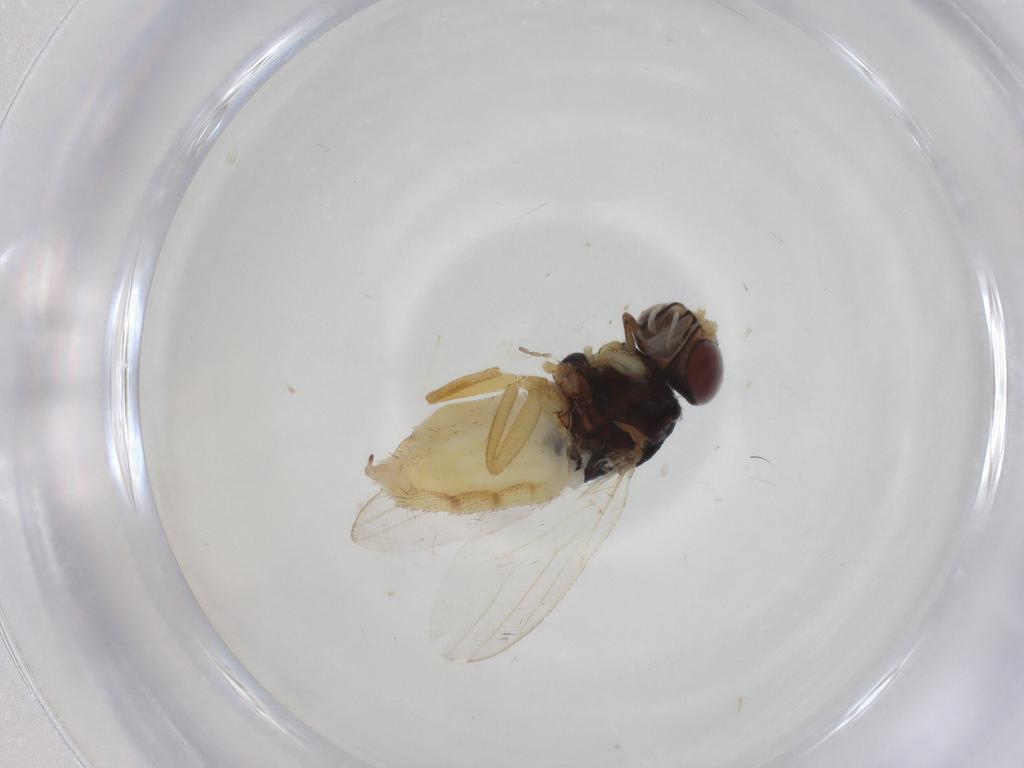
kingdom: Animalia
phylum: Arthropoda
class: Insecta
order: Diptera
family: Chloropidae
